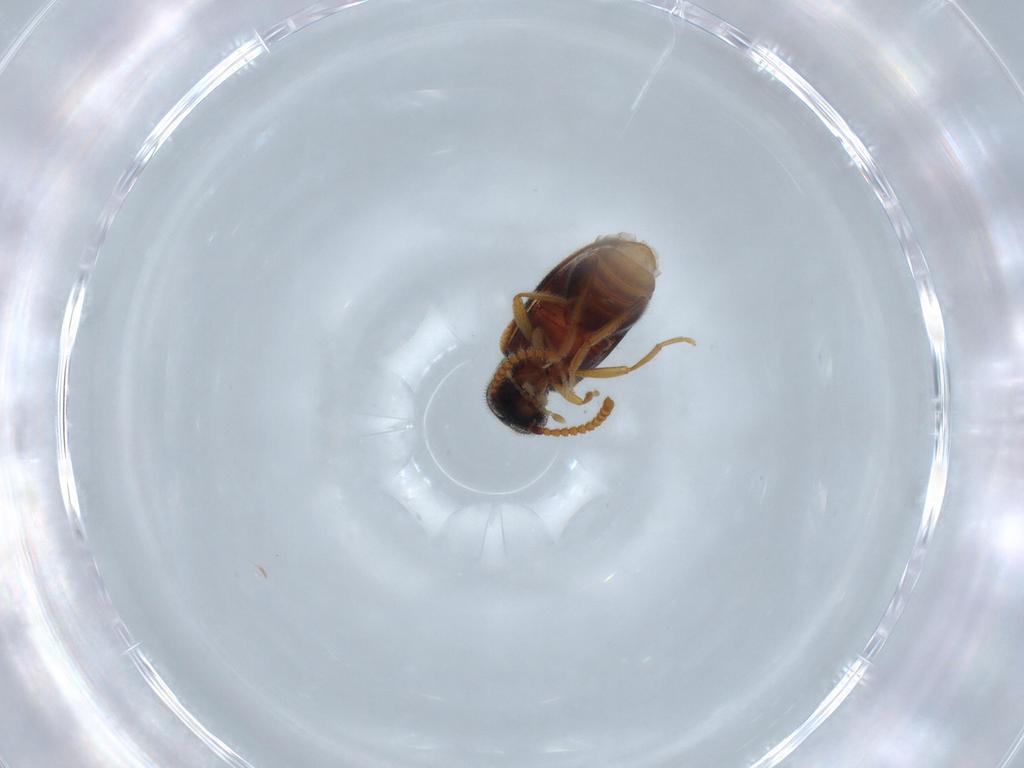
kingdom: Animalia
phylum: Arthropoda
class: Insecta
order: Coleoptera
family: Aderidae
